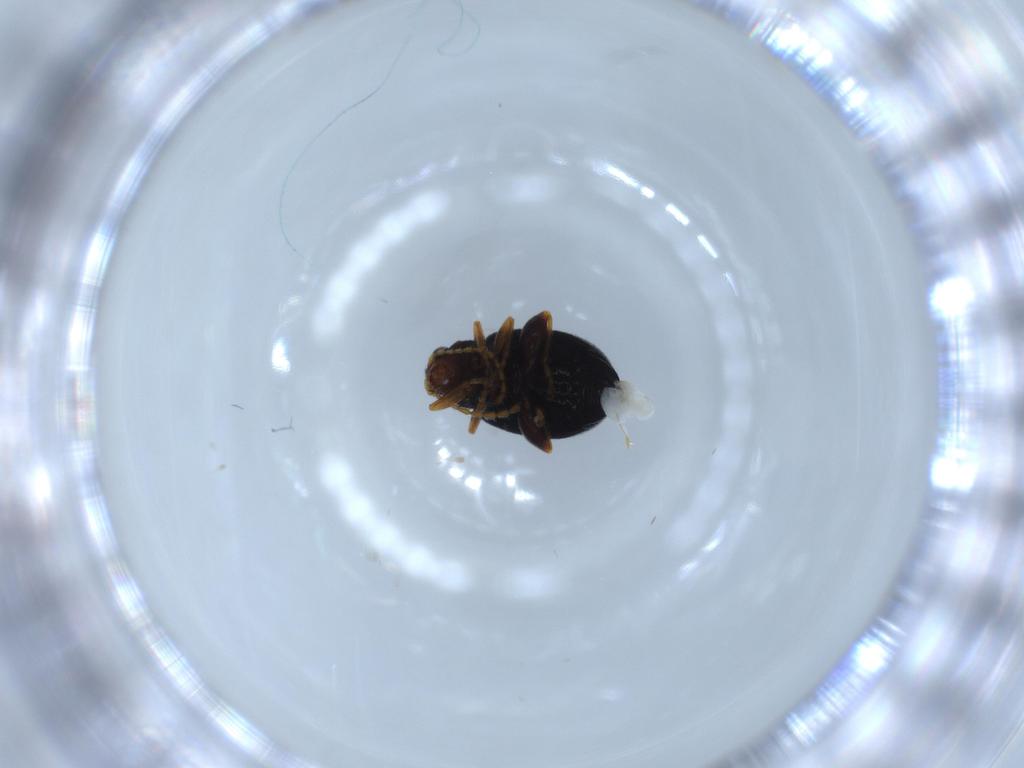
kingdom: Animalia
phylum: Arthropoda
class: Insecta
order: Coleoptera
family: Chrysomelidae
